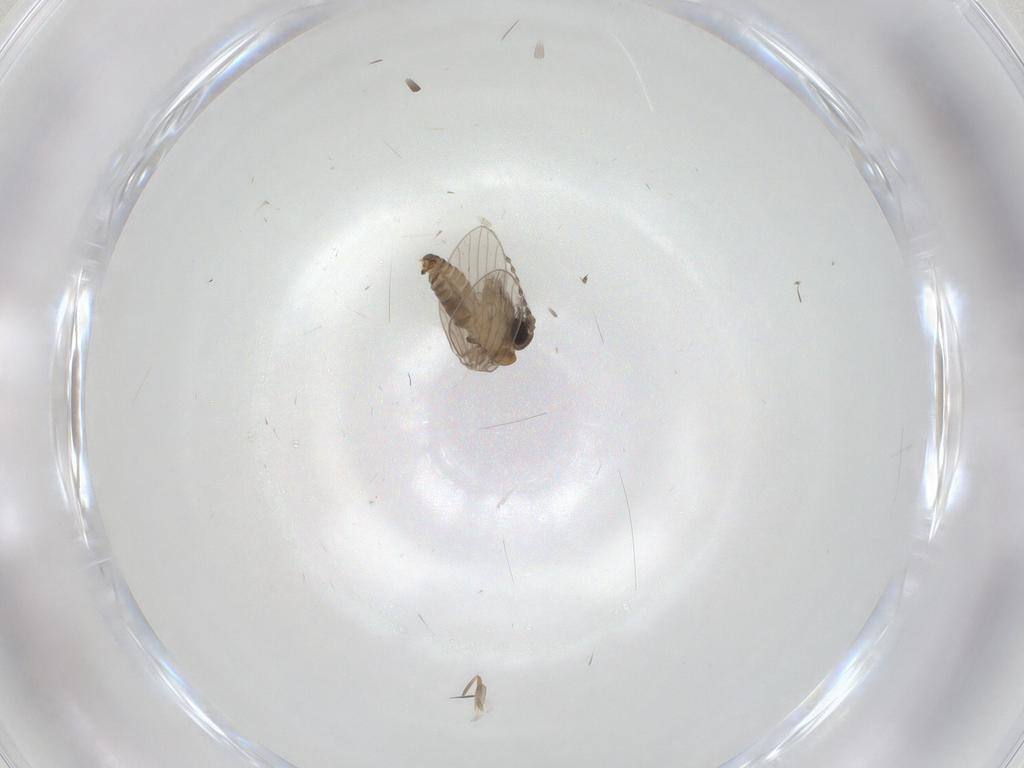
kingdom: Animalia
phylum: Arthropoda
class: Insecta
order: Diptera
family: Psychodidae
